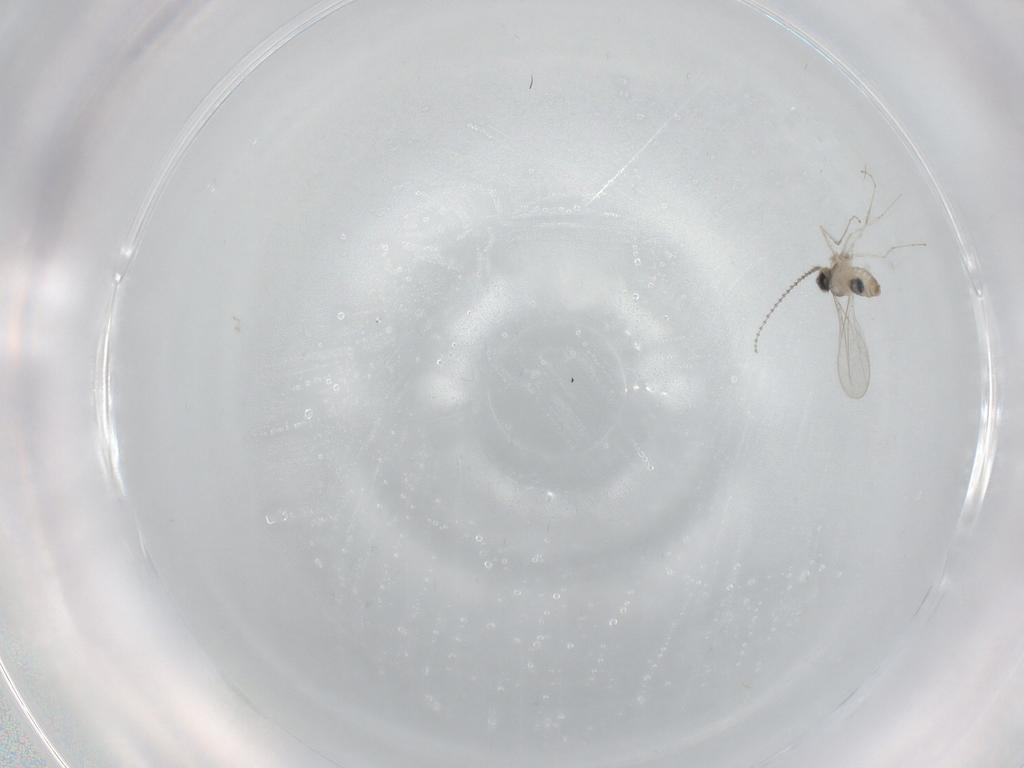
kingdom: Animalia
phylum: Arthropoda
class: Insecta
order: Diptera
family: Cecidomyiidae
